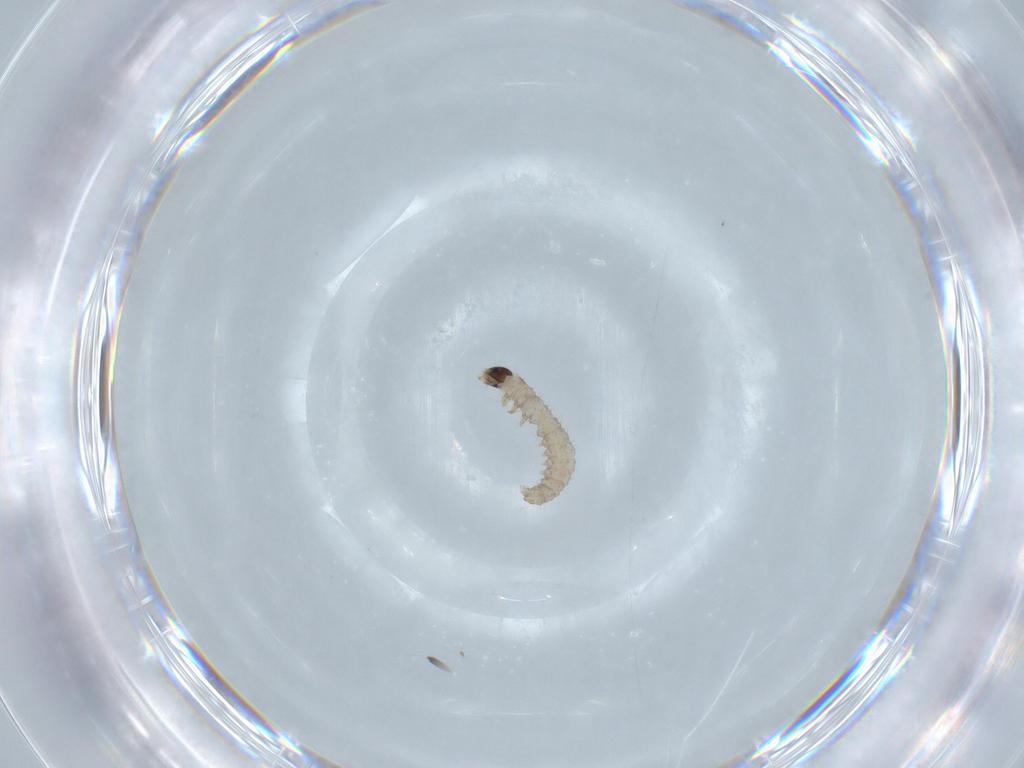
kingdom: Animalia
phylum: Arthropoda
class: Insecta
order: Lepidoptera
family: Tortricidae
